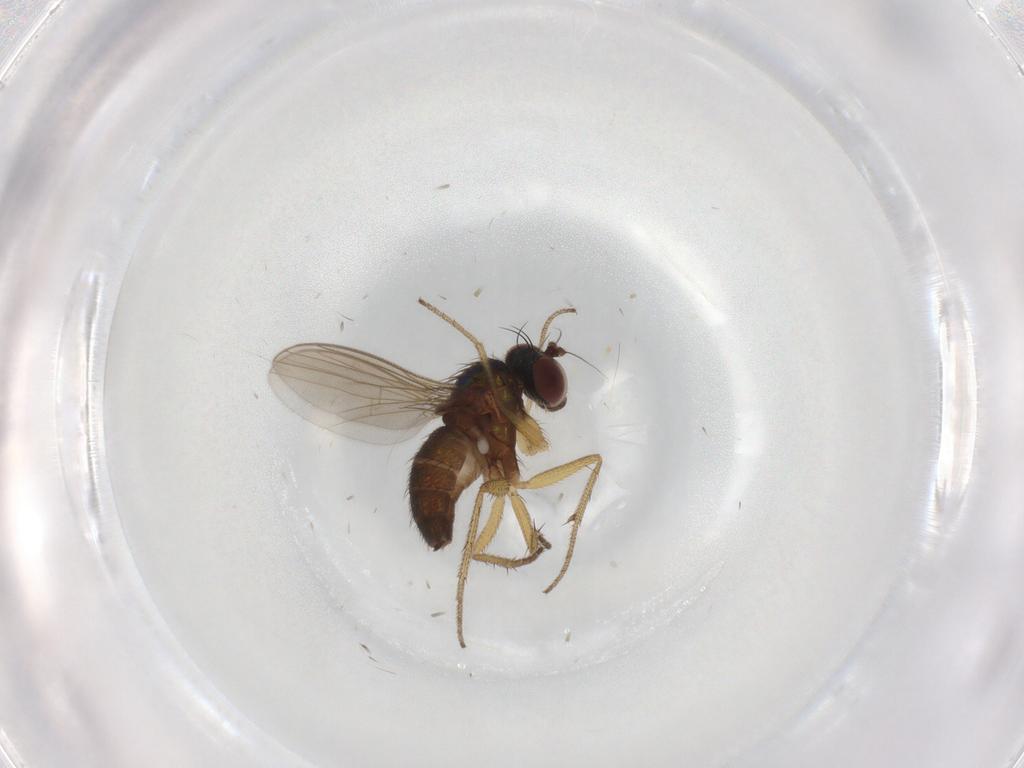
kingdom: Animalia
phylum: Arthropoda
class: Insecta
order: Diptera
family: Dolichopodidae
